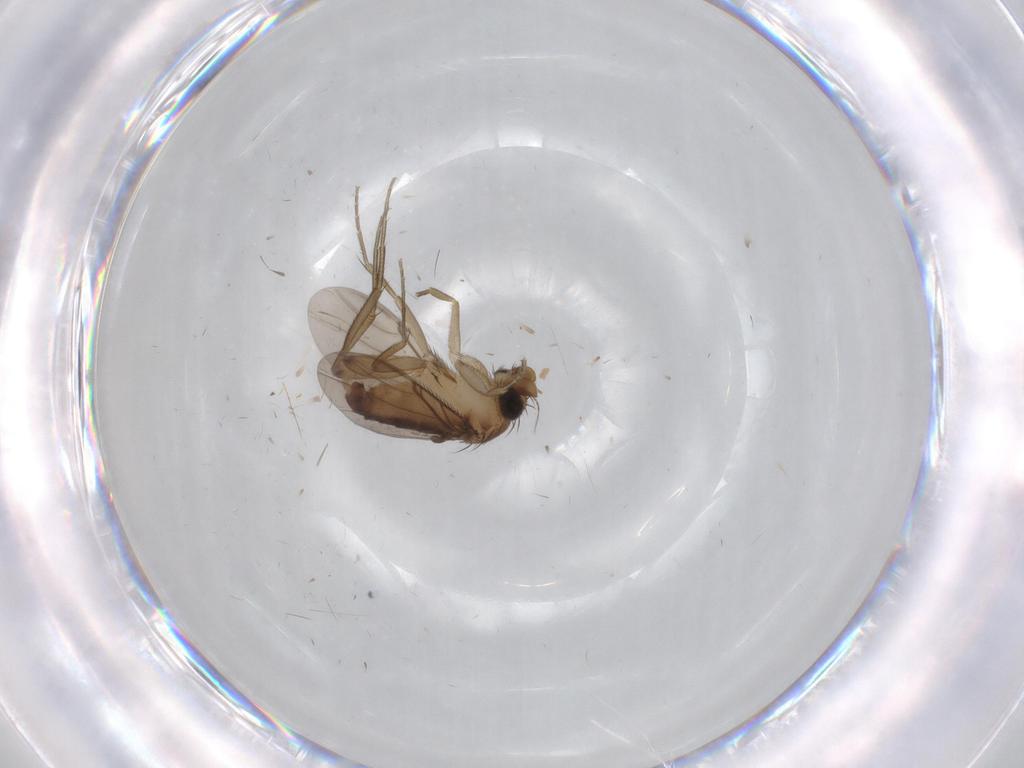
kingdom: Animalia
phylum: Arthropoda
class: Insecta
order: Diptera
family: Phoridae
